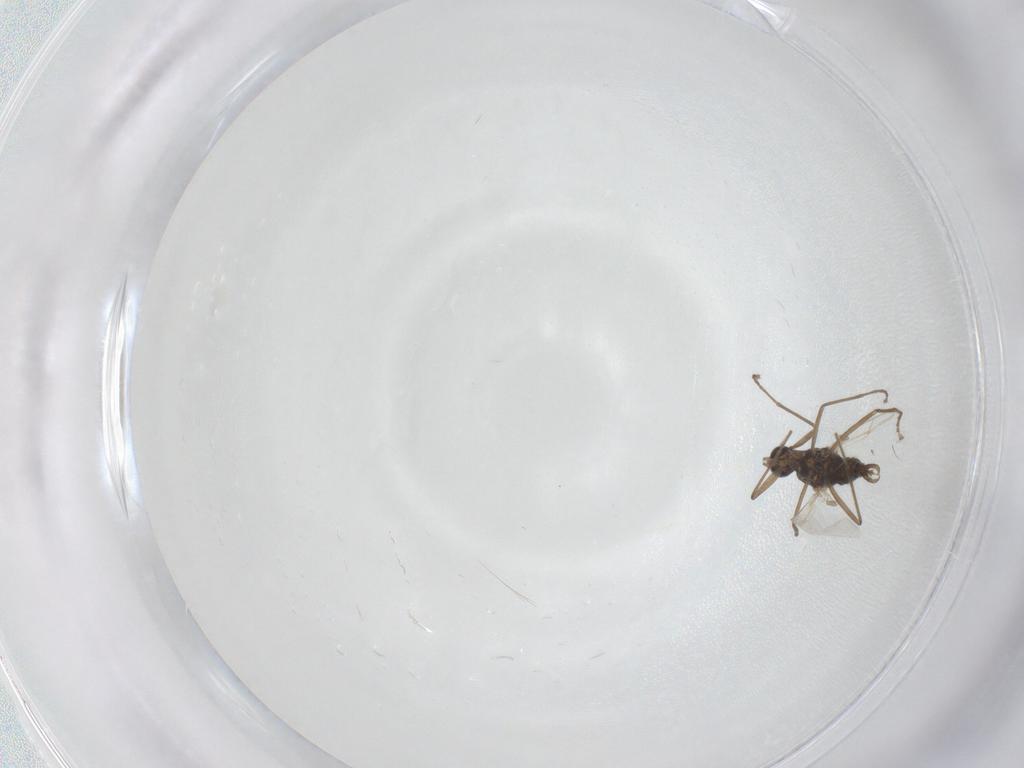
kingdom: Animalia
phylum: Arthropoda
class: Insecta
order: Diptera
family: Cecidomyiidae
